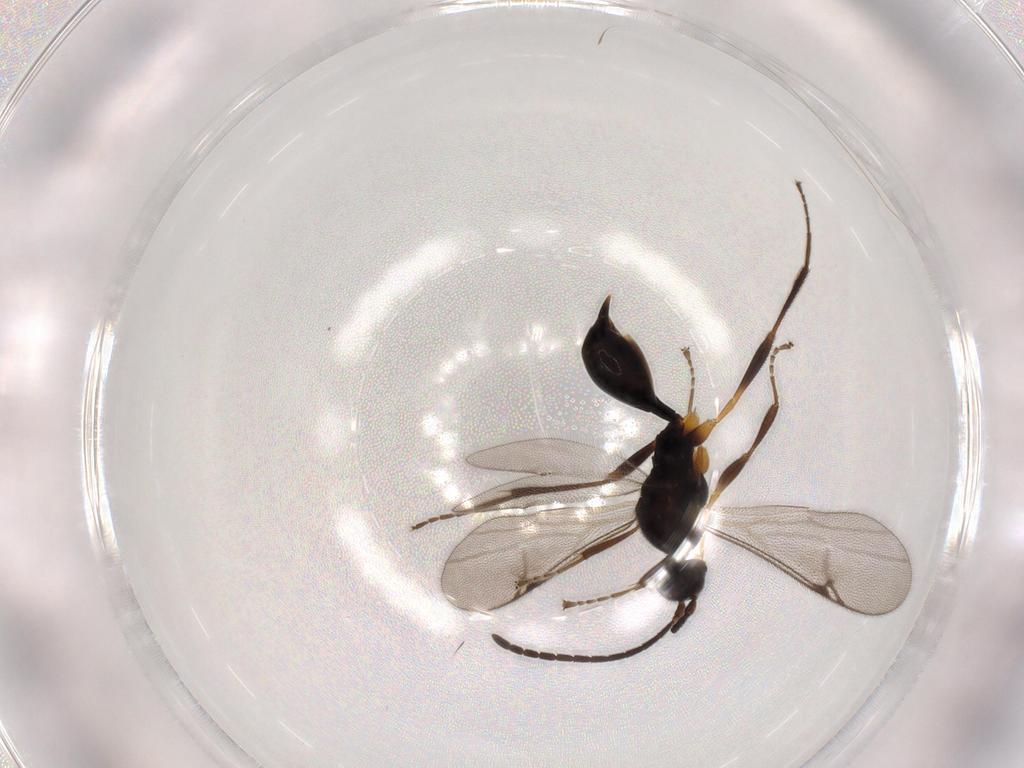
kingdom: Animalia
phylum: Arthropoda
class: Insecta
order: Hymenoptera
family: Proctotrupidae
